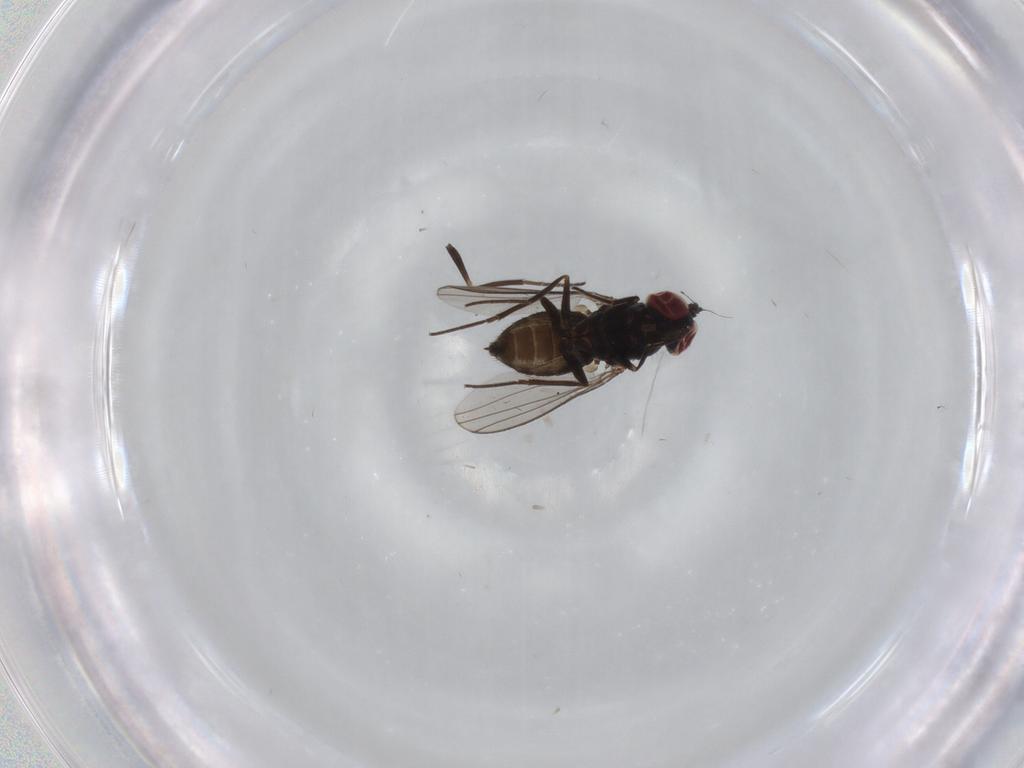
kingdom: Animalia
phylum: Arthropoda
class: Insecta
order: Diptera
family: Dolichopodidae
